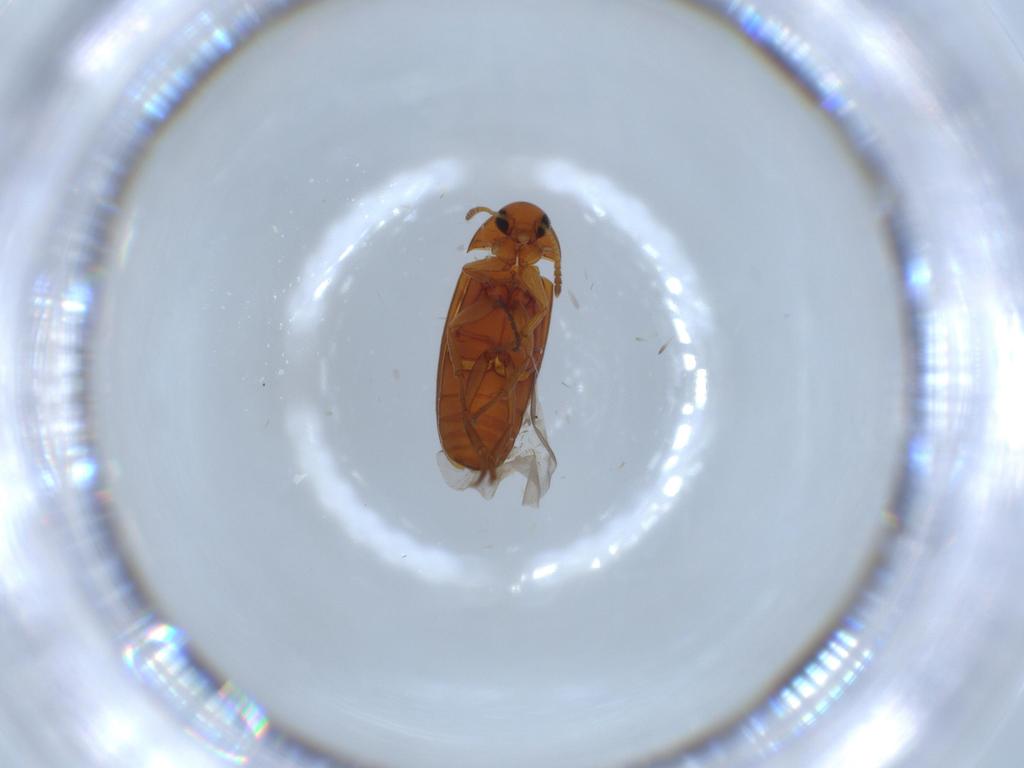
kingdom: Animalia
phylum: Arthropoda
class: Insecta
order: Coleoptera
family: Scraptiidae
